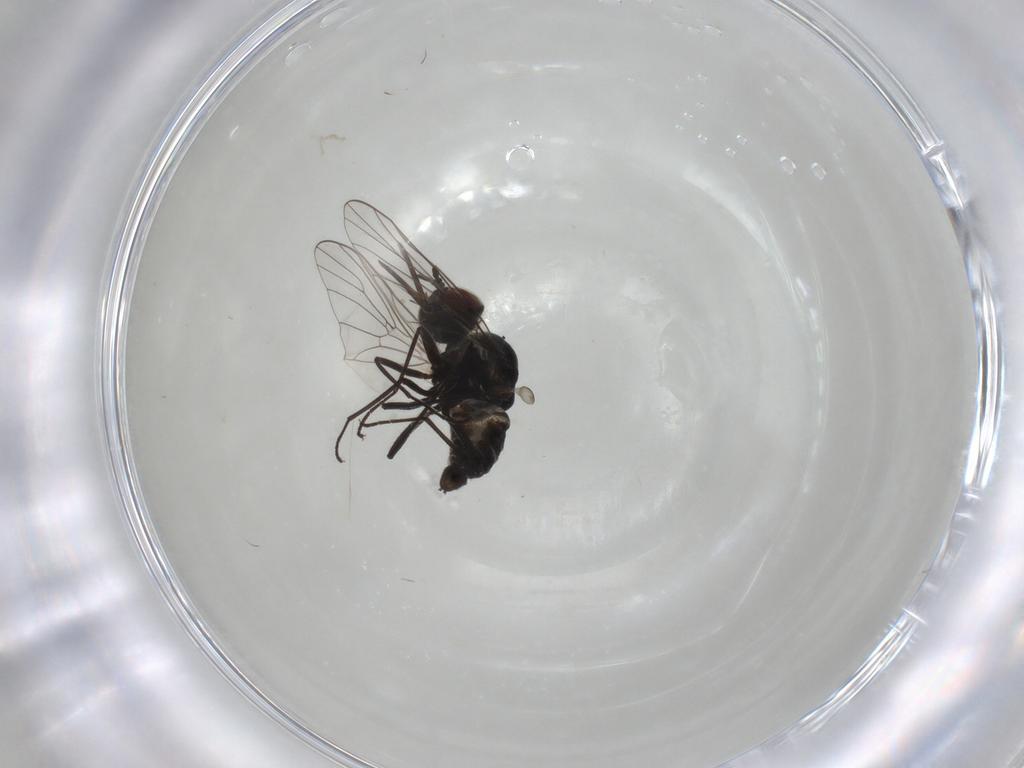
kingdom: Animalia
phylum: Arthropoda
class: Insecta
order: Diptera
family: Bombyliidae
